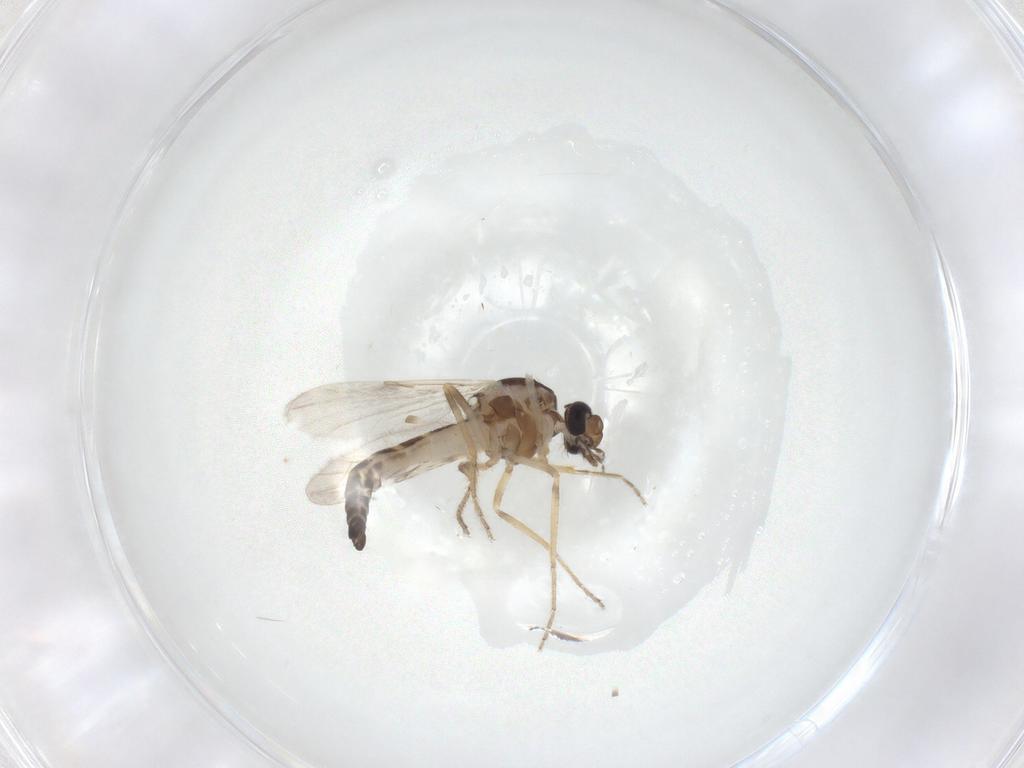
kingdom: Animalia
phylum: Arthropoda
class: Insecta
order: Diptera
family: Ceratopogonidae
